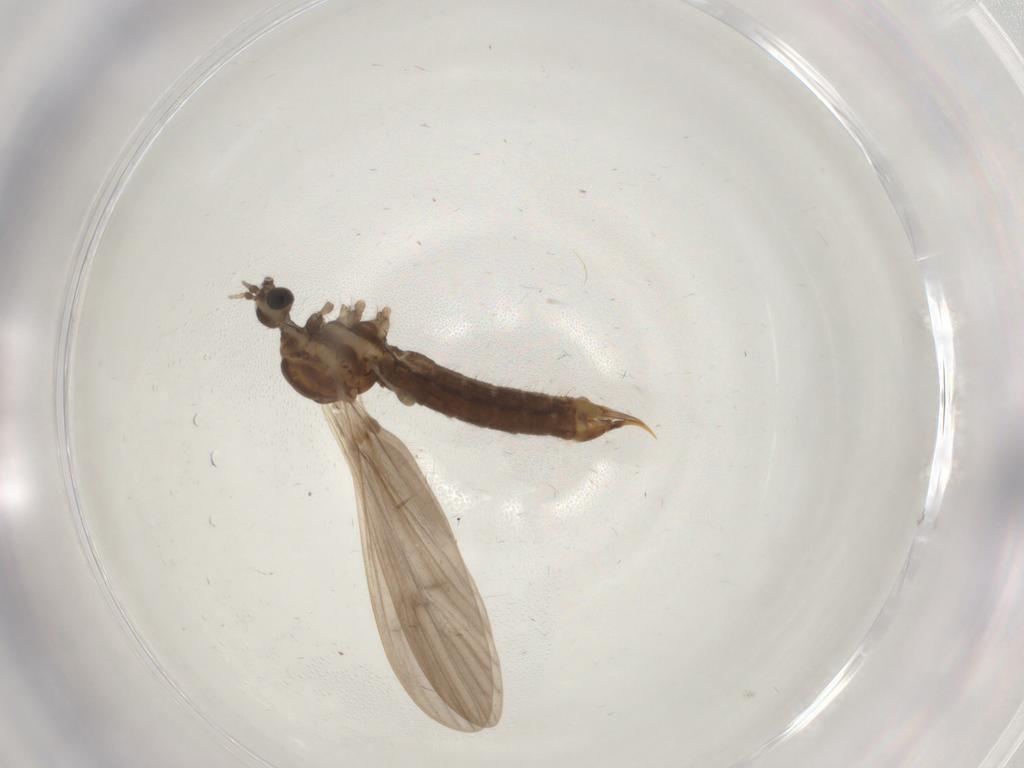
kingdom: Animalia
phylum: Arthropoda
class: Insecta
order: Diptera
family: Limoniidae
